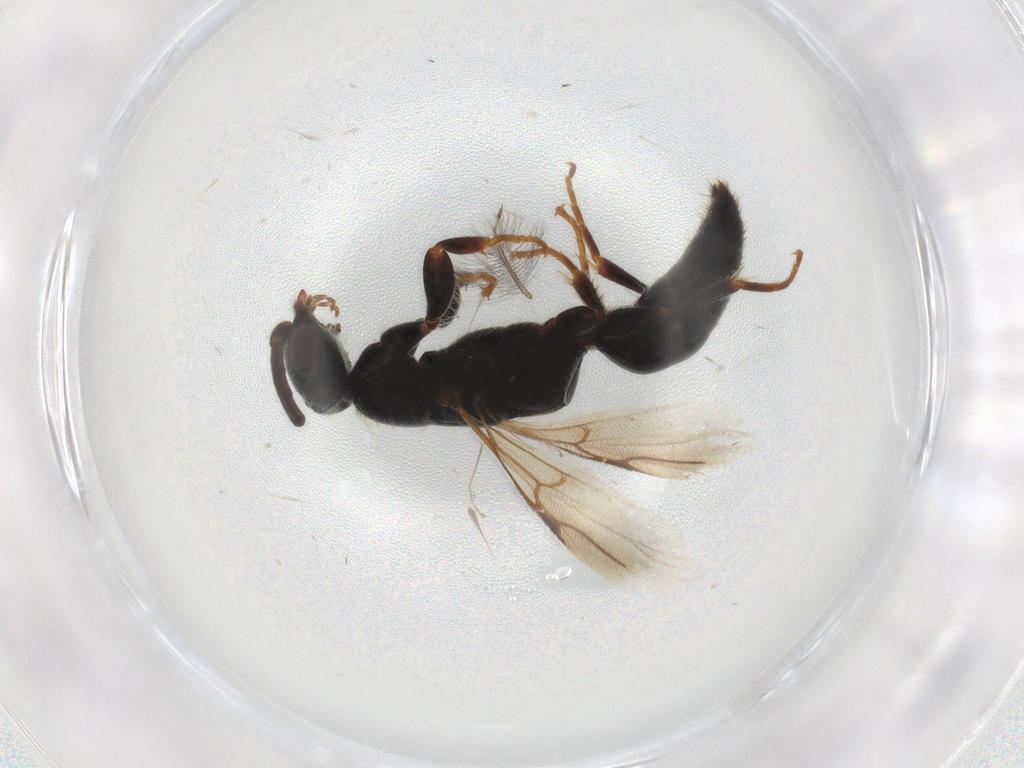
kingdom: Animalia
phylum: Arthropoda
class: Insecta
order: Hymenoptera
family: Bethylidae
